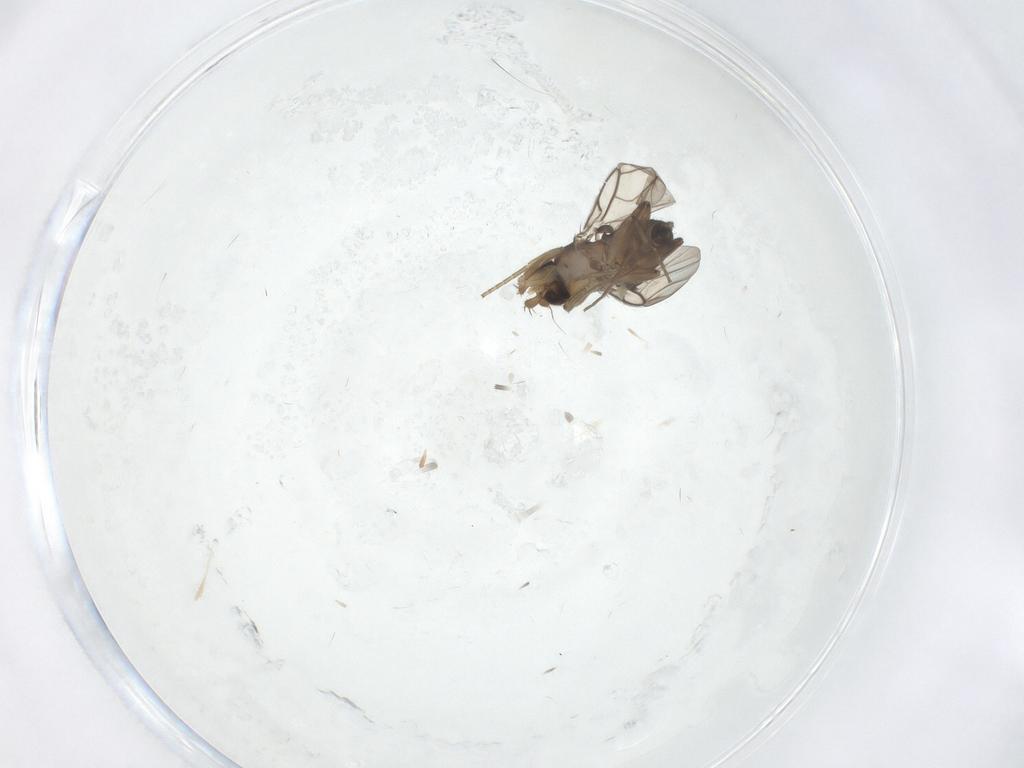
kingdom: Animalia
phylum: Arthropoda
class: Insecta
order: Diptera
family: Phoridae
